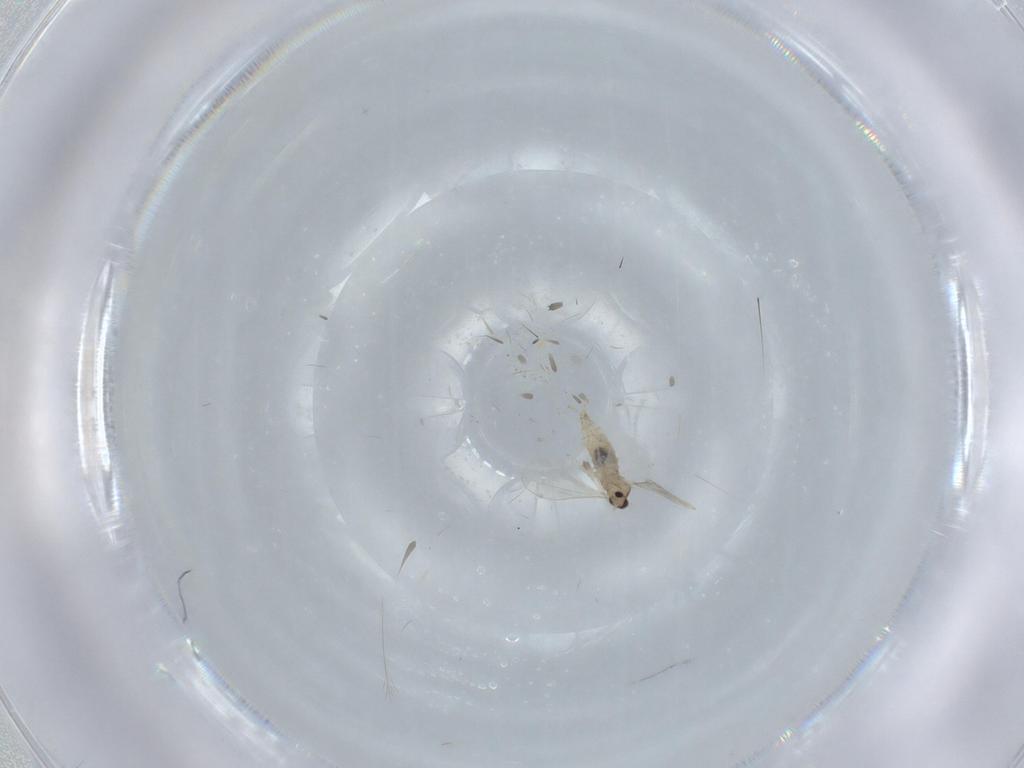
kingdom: Animalia
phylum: Arthropoda
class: Insecta
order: Diptera
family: Cecidomyiidae
